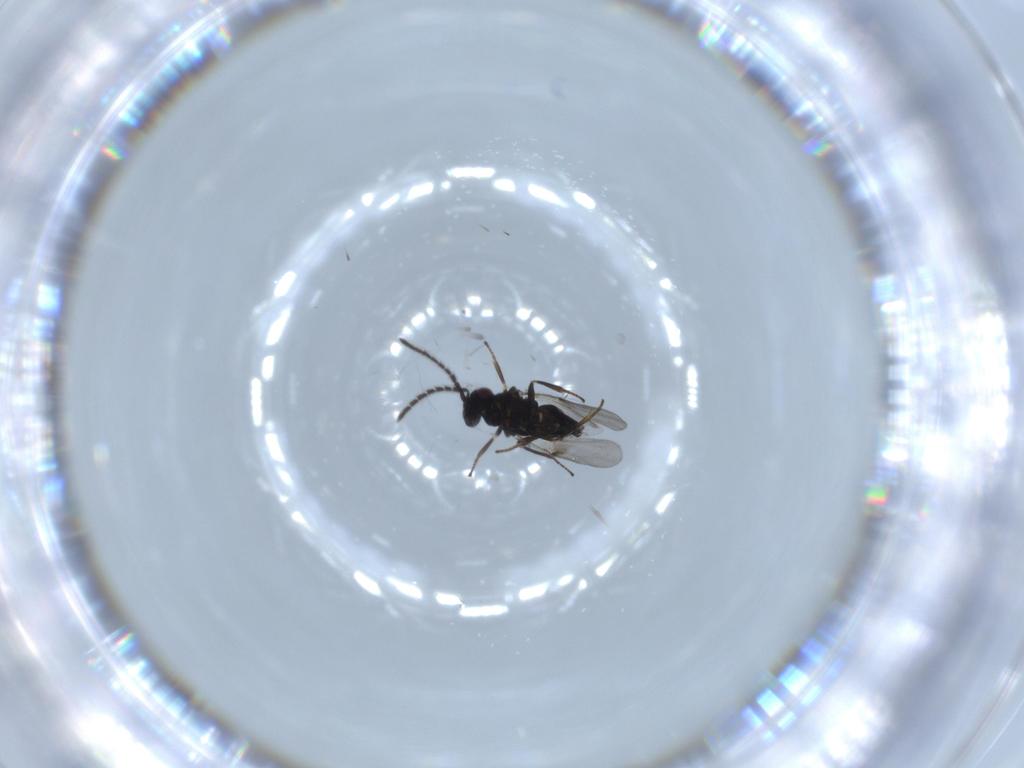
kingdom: Animalia
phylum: Arthropoda
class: Insecta
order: Hymenoptera
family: Encyrtidae
